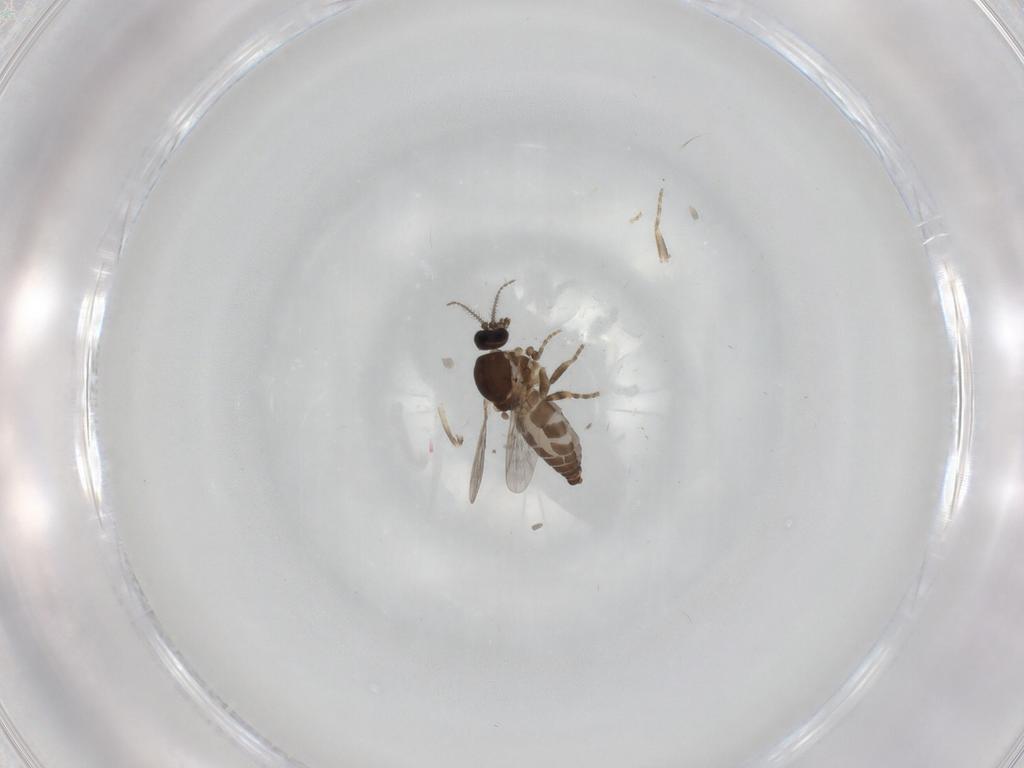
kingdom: Animalia
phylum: Arthropoda
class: Insecta
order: Diptera
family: Ceratopogonidae
